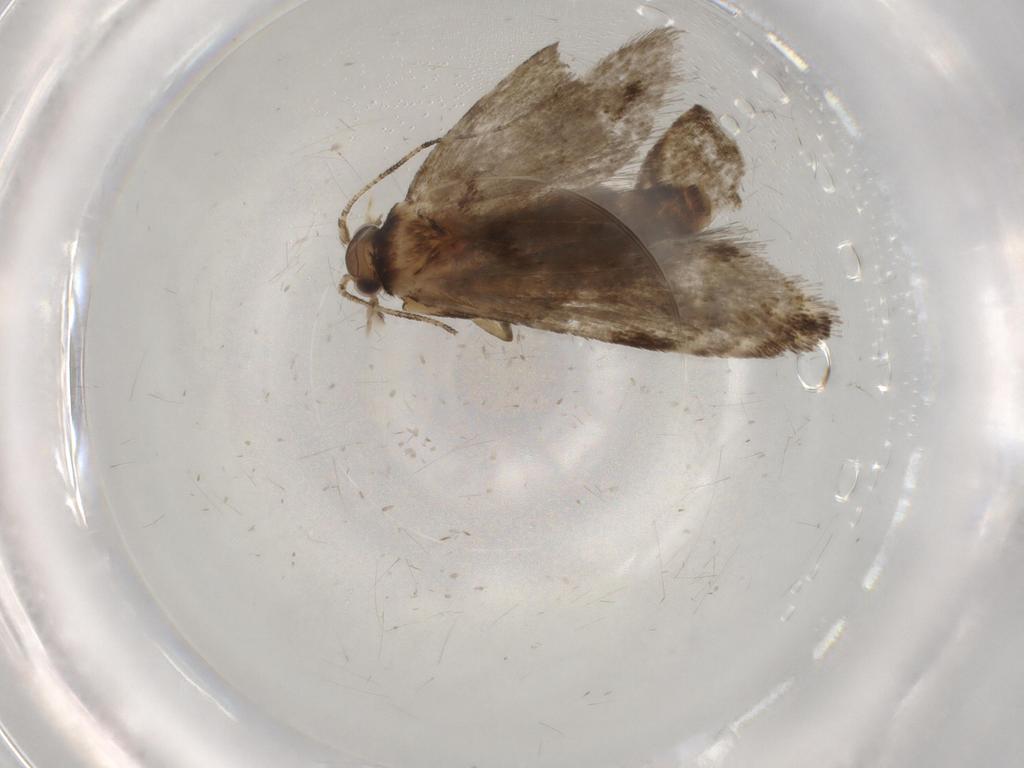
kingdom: Animalia
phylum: Arthropoda
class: Insecta
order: Lepidoptera
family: Tineidae
